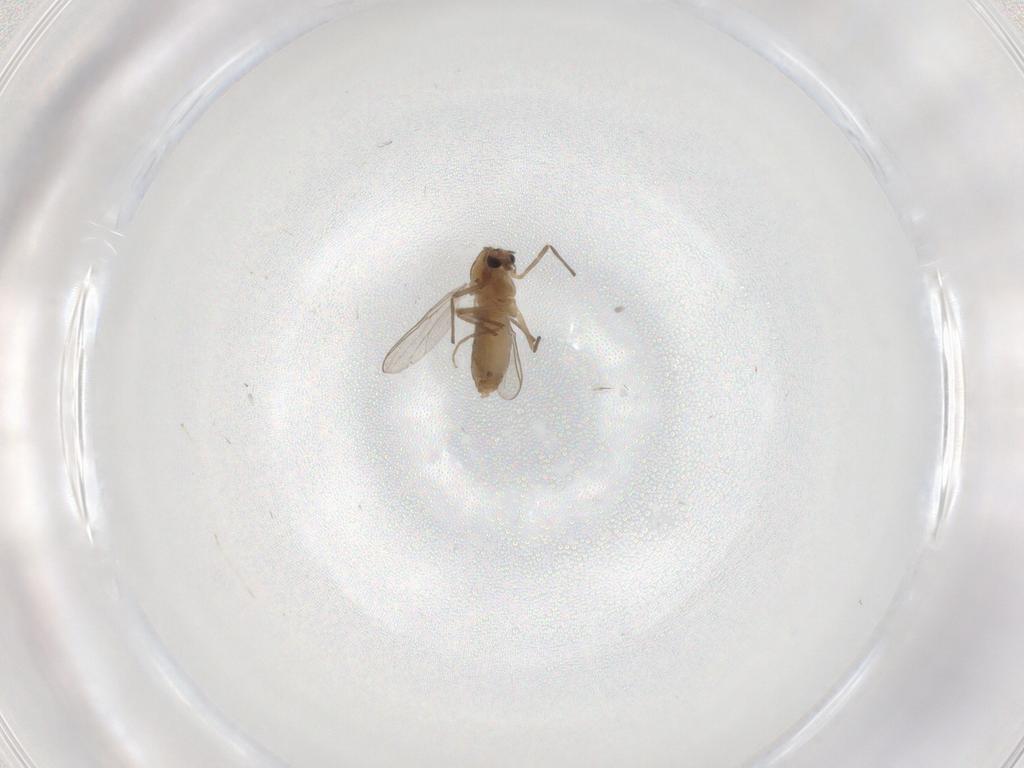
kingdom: Animalia
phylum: Arthropoda
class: Insecta
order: Diptera
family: Chironomidae
